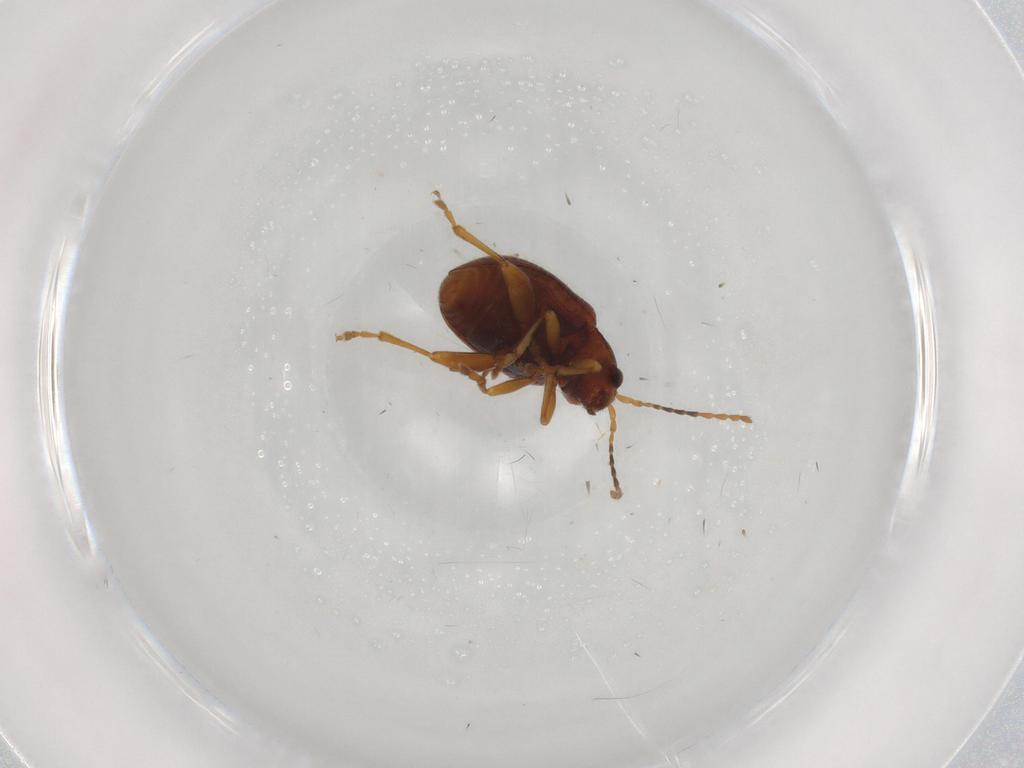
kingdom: Animalia
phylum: Arthropoda
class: Insecta
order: Coleoptera
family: Chrysomelidae
